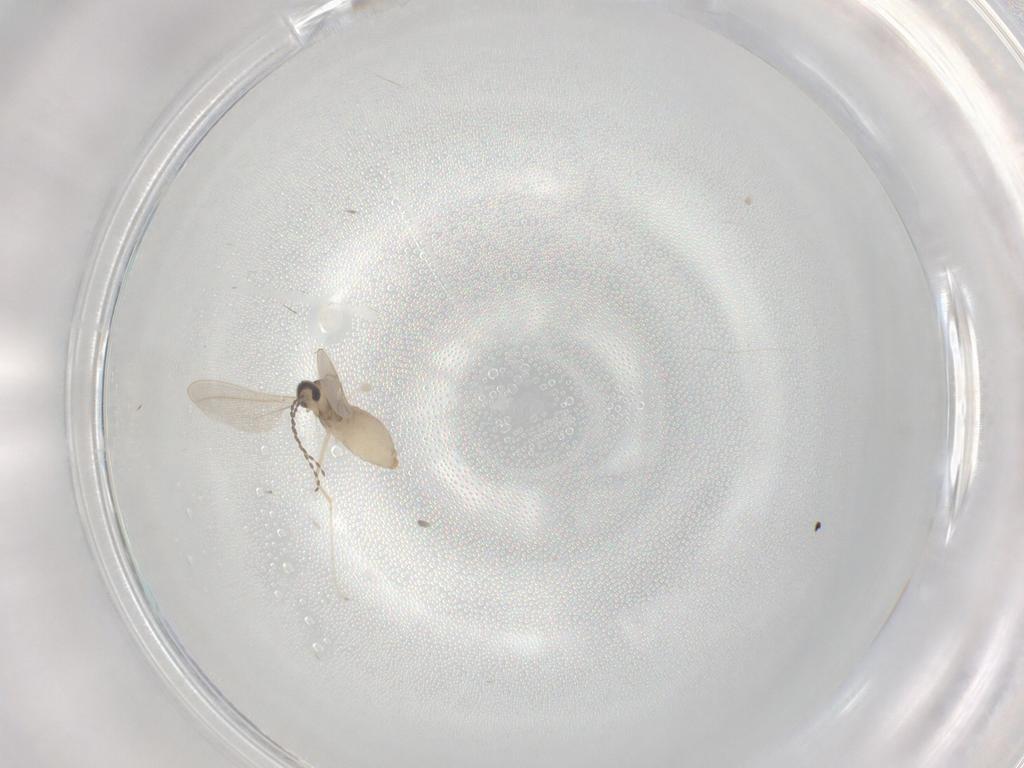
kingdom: Animalia
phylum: Arthropoda
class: Insecta
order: Diptera
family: Cecidomyiidae
